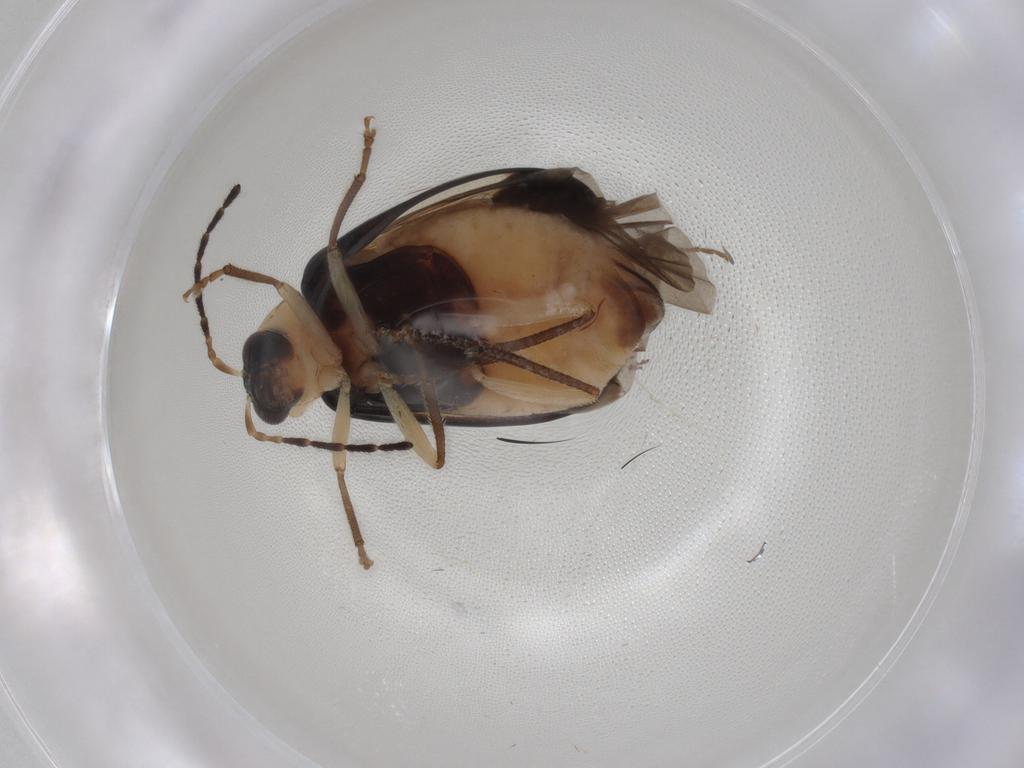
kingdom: Animalia
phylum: Arthropoda
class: Insecta
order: Coleoptera
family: Chrysomelidae
